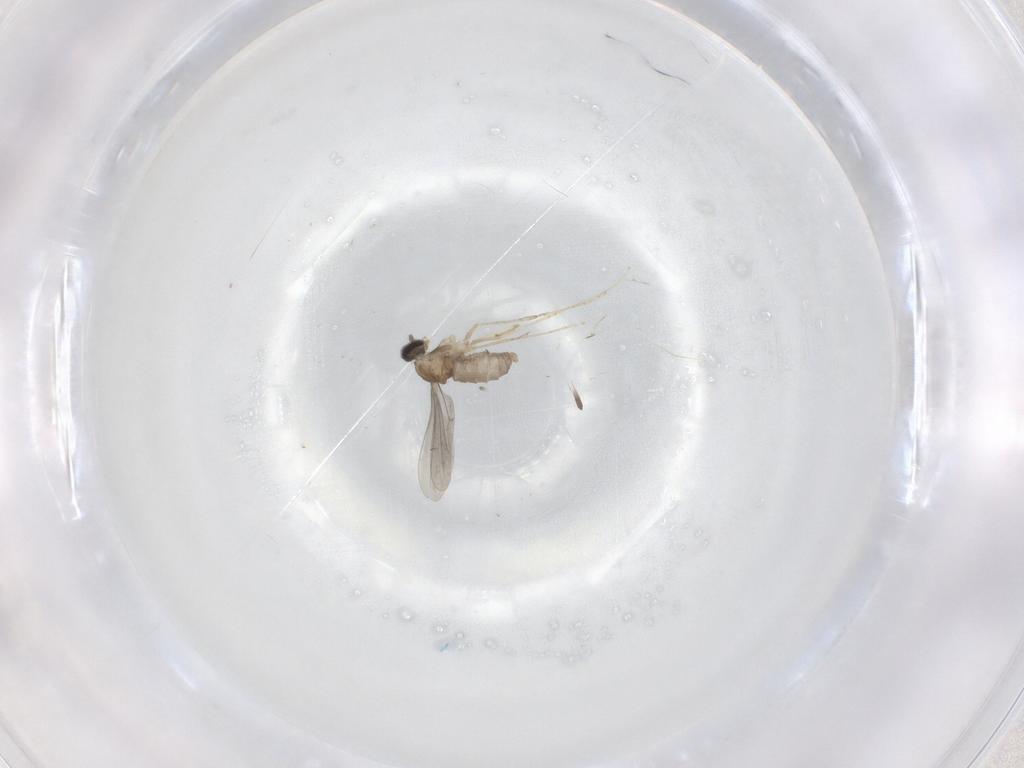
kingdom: Animalia
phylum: Arthropoda
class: Insecta
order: Diptera
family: Cecidomyiidae
